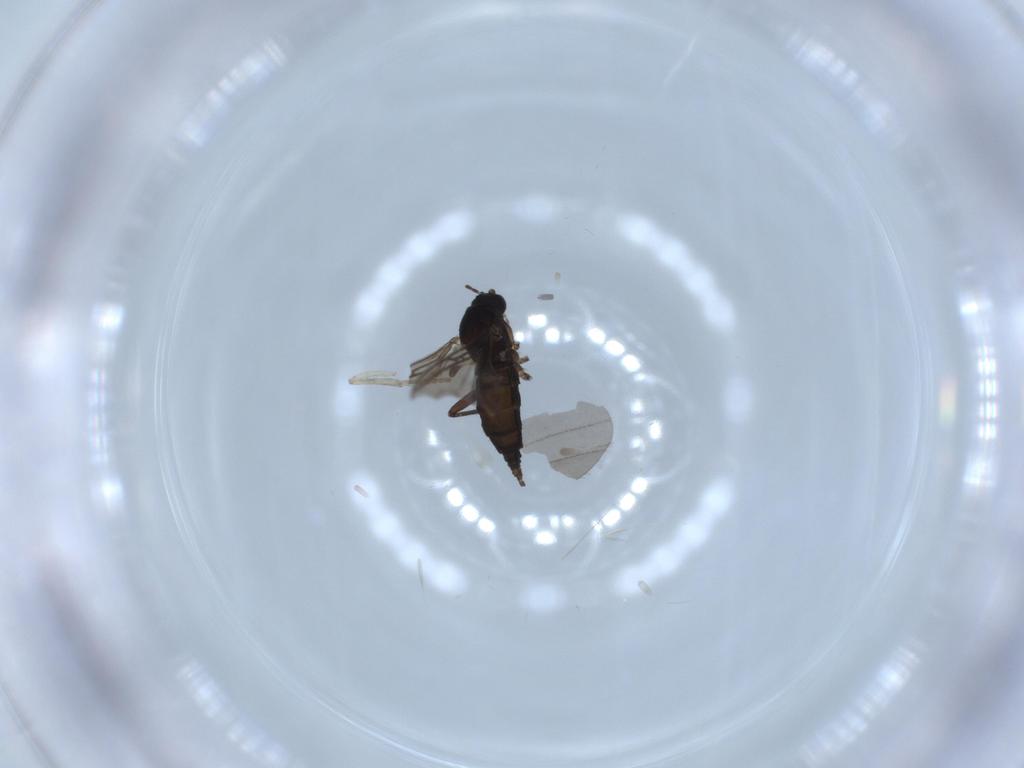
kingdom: Animalia
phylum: Arthropoda
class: Insecta
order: Diptera
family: Sciaridae
